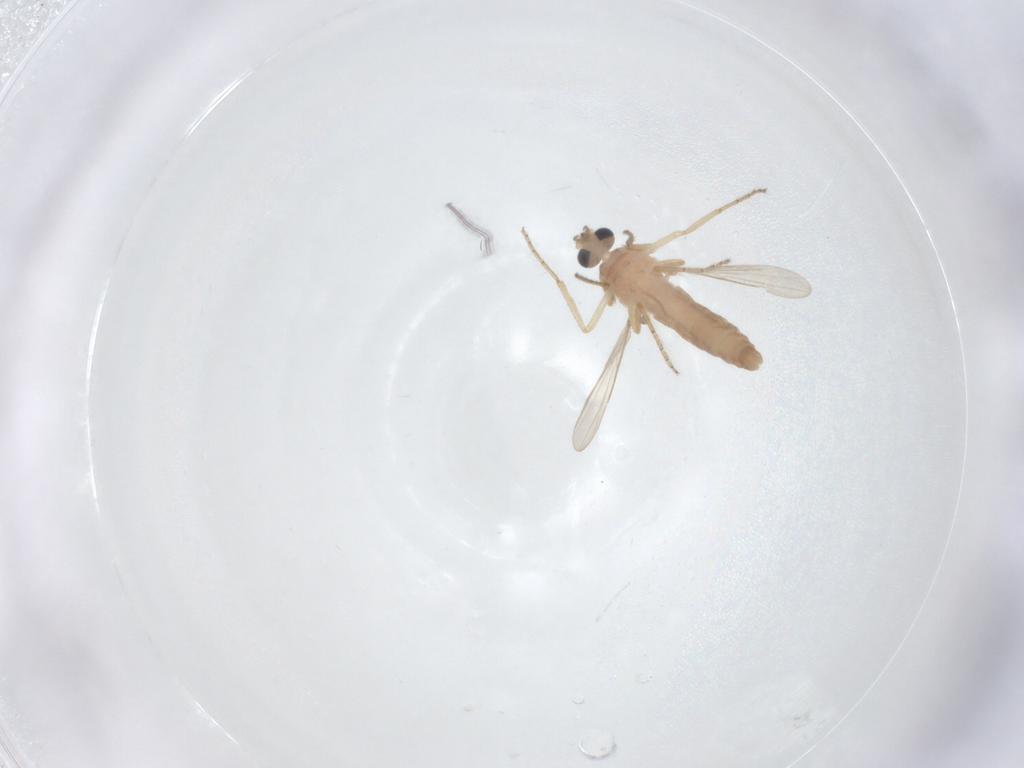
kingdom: Animalia
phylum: Arthropoda
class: Insecta
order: Diptera
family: Ceratopogonidae
